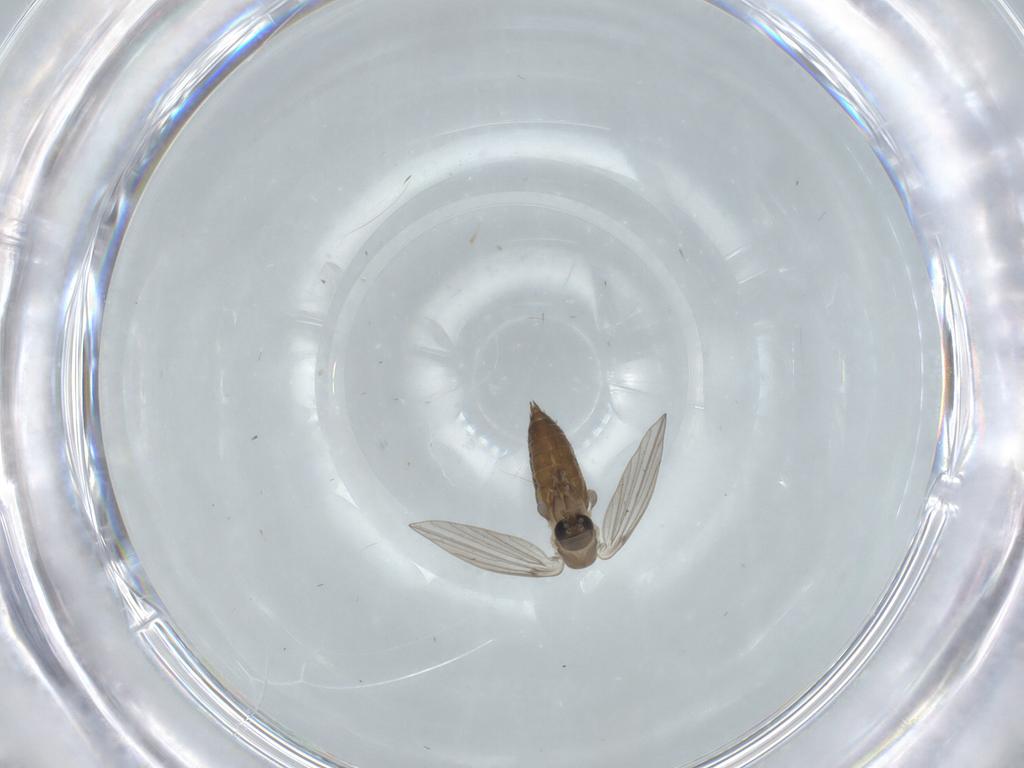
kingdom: Animalia
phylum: Arthropoda
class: Insecta
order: Diptera
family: Psychodidae
